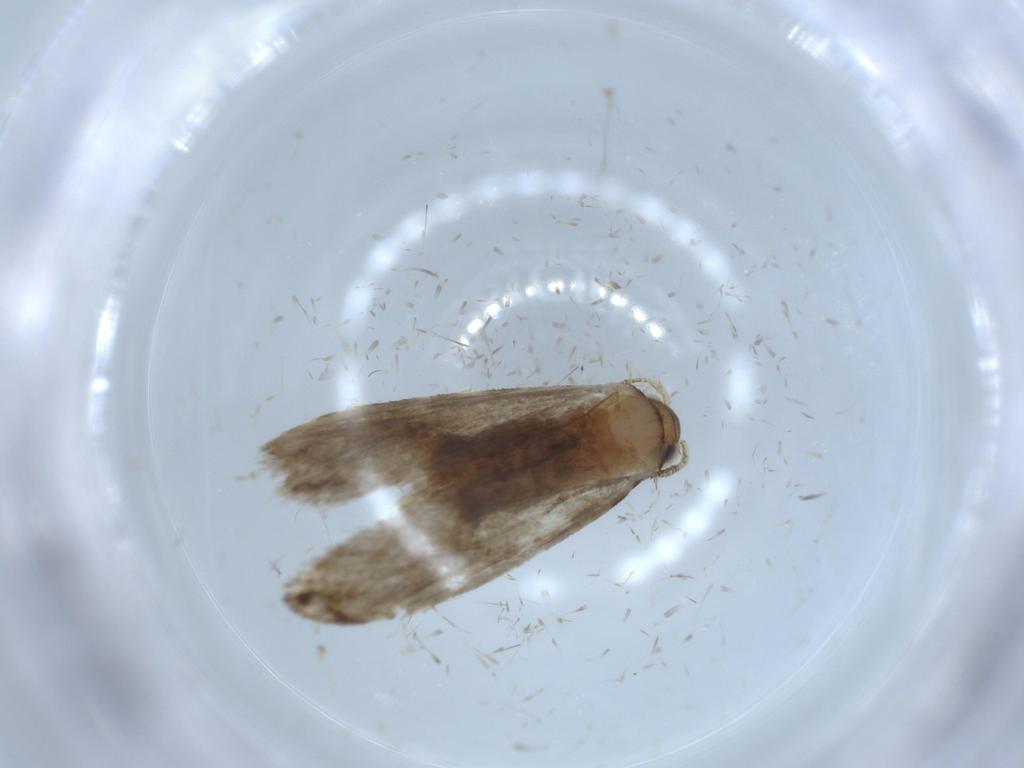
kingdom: Animalia
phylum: Arthropoda
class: Insecta
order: Lepidoptera
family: Tineidae
